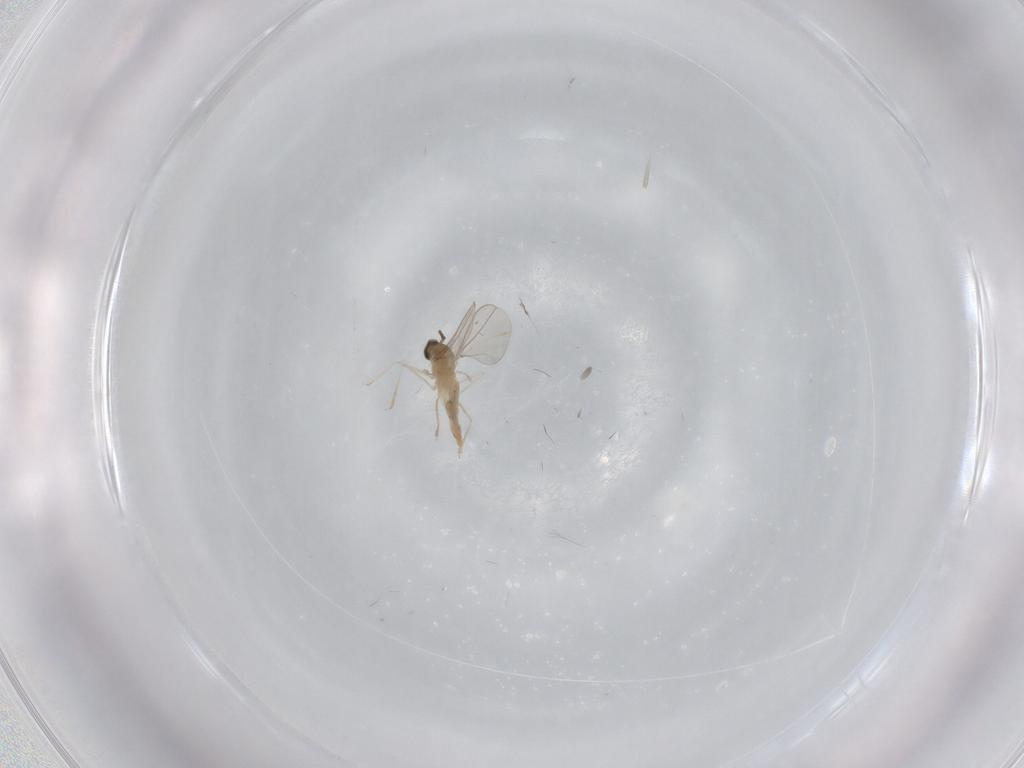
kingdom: Animalia
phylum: Arthropoda
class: Insecta
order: Diptera
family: Cecidomyiidae
